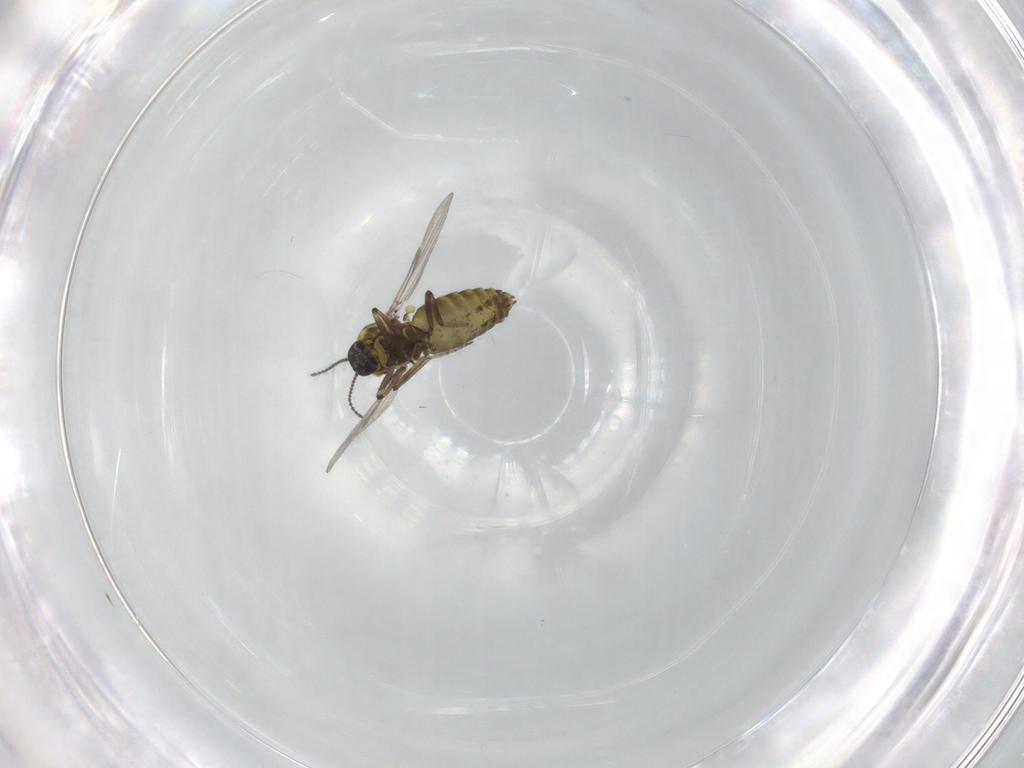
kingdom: Animalia
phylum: Arthropoda
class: Insecta
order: Diptera
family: Ceratopogonidae
